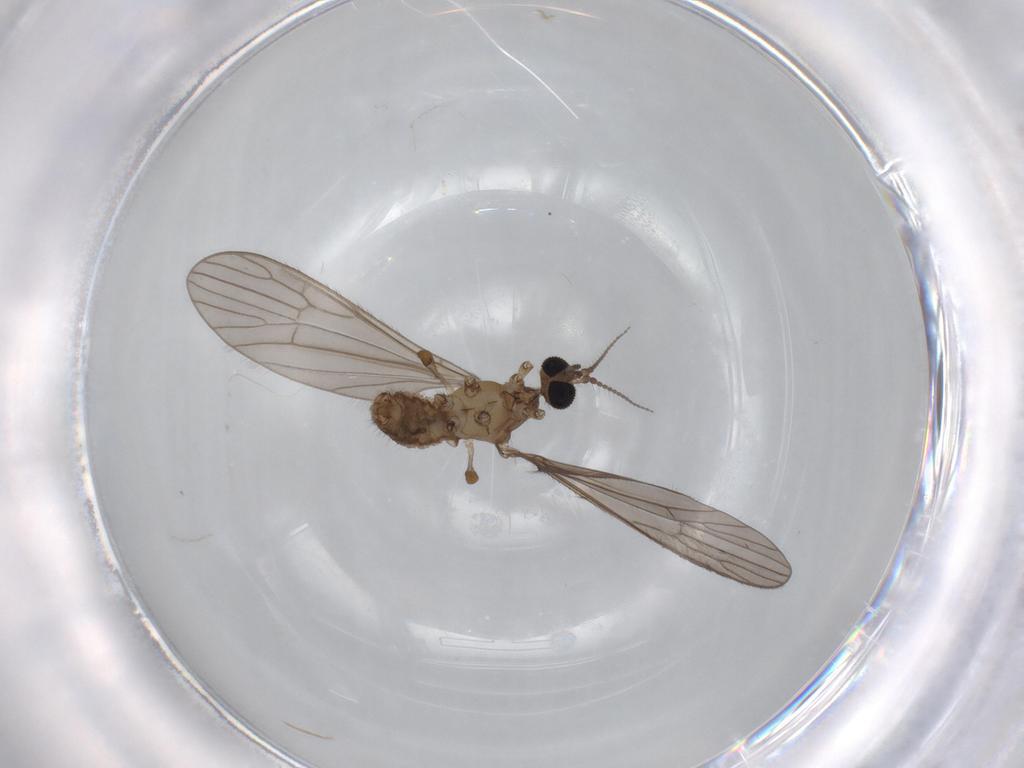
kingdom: Animalia
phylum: Arthropoda
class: Insecta
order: Diptera
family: Chironomidae
